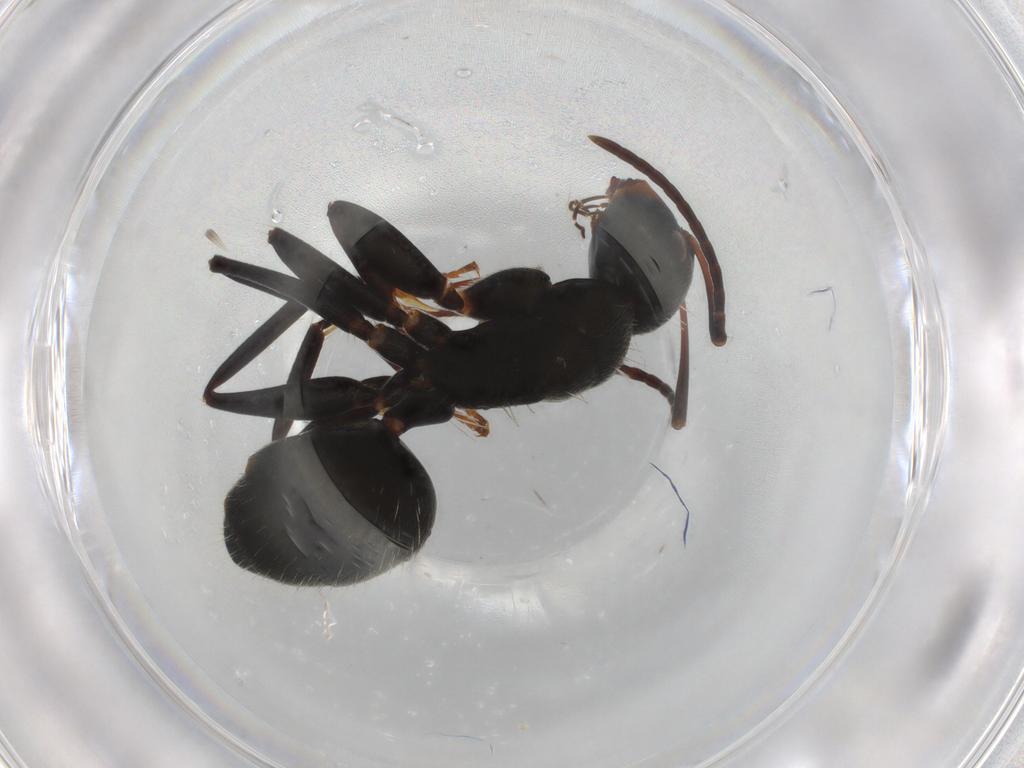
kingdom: Animalia
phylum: Arthropoda
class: Insecta
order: Hymenoptera
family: Formicidae
